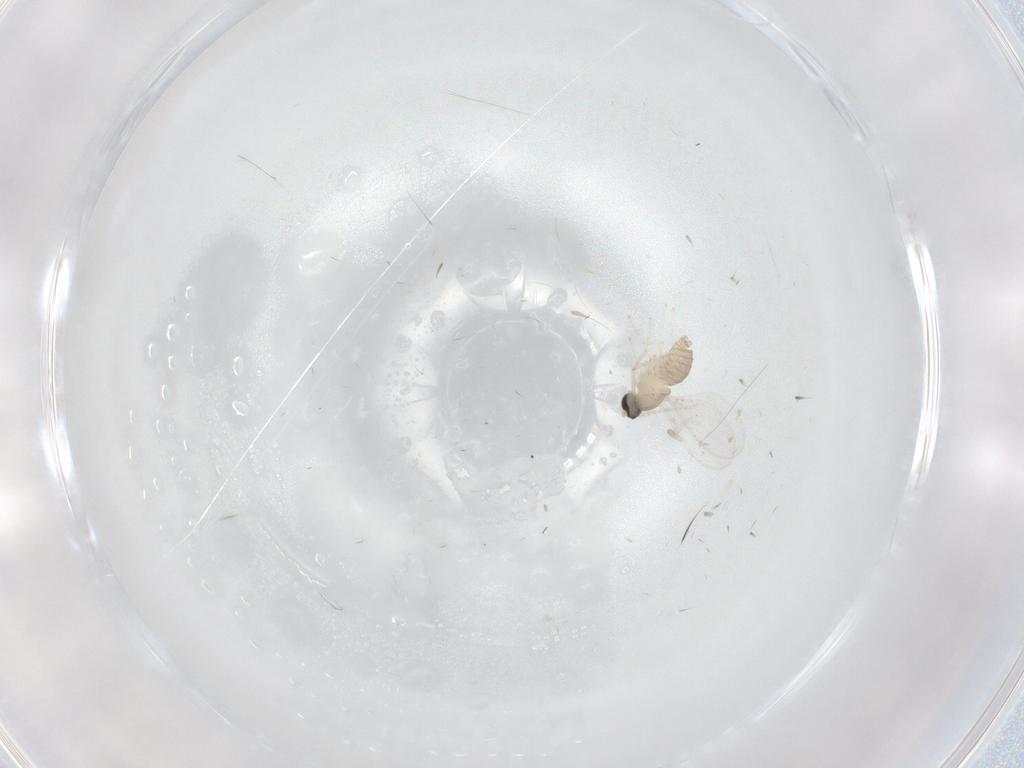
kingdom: Animalia
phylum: Arthropoda
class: Insecta
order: Diptera
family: Cecidomyiidae
